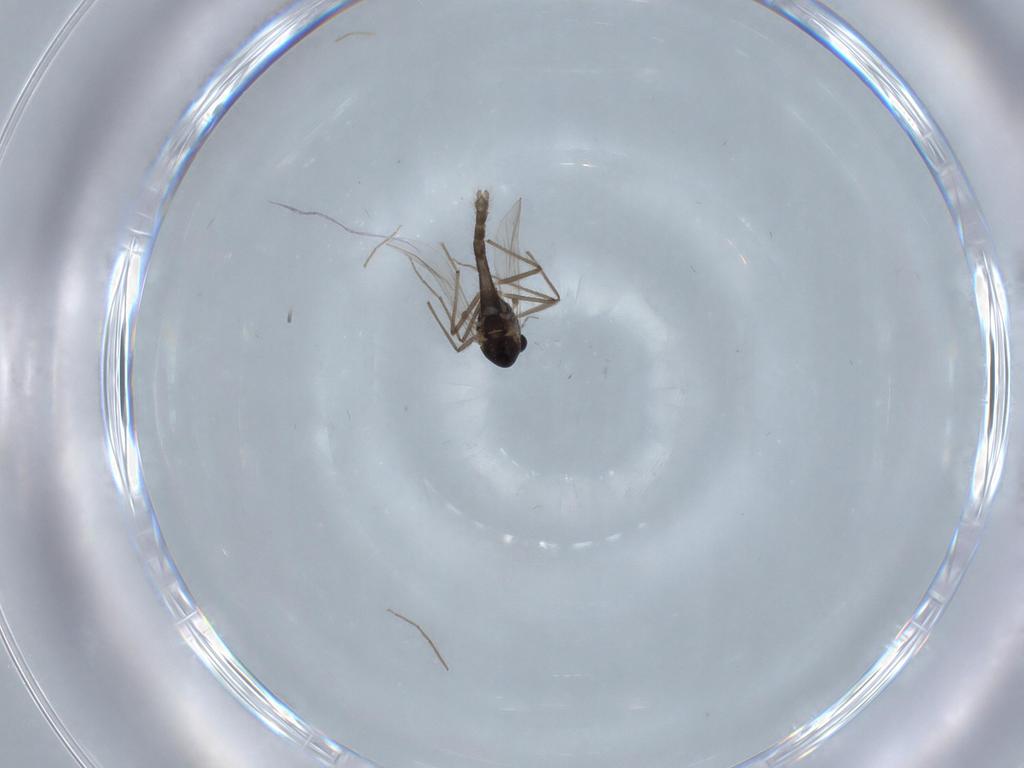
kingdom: Animalia
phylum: Arthropoda
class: Insecta
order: Diptera
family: Chironomidae
